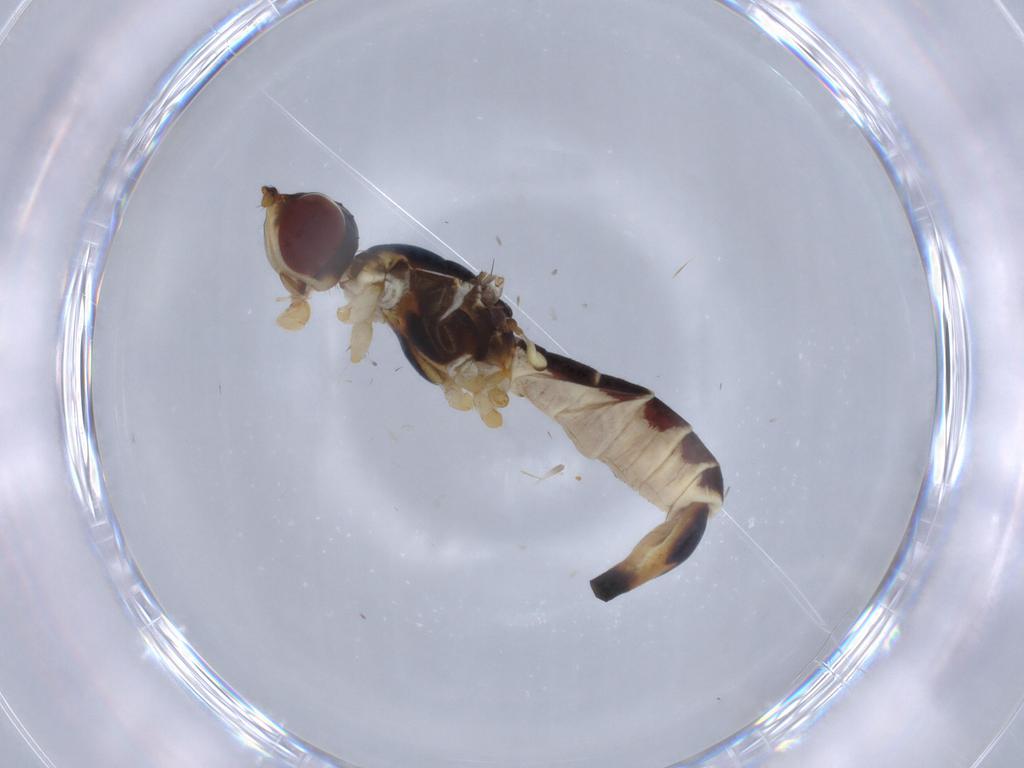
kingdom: Animalia
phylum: Arthropoda
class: Insecta
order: Diptera
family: Micropezidae
